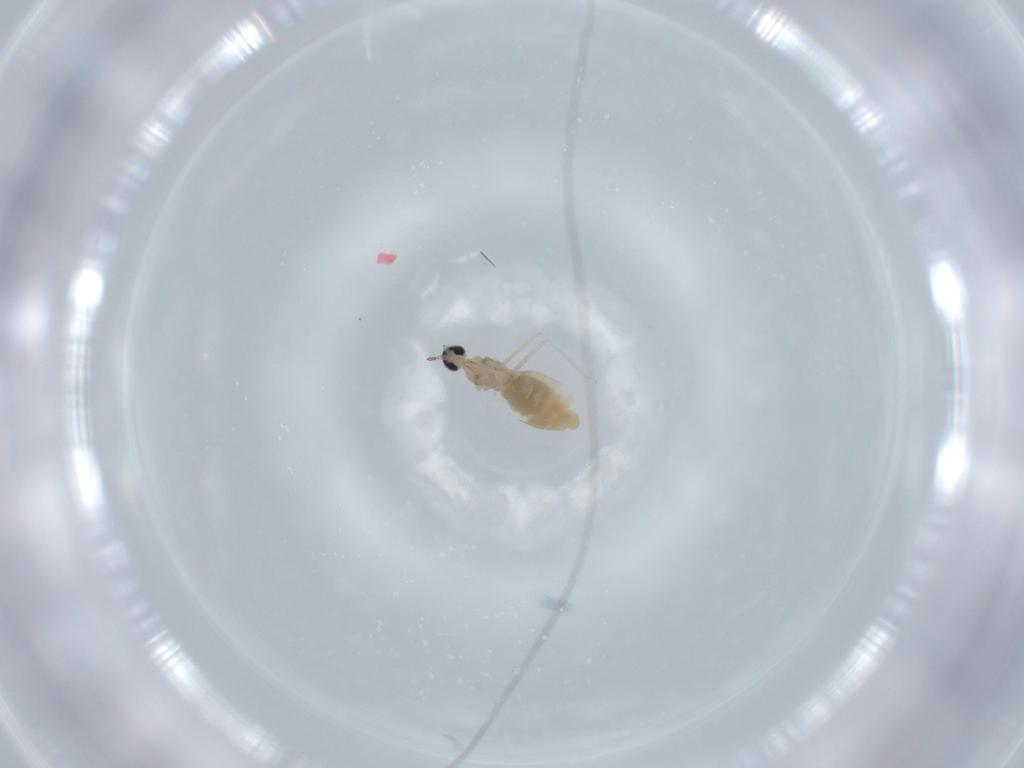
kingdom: Animalia
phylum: Arthropoda
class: Insecta
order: Diptera
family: Cecidomyiidae
